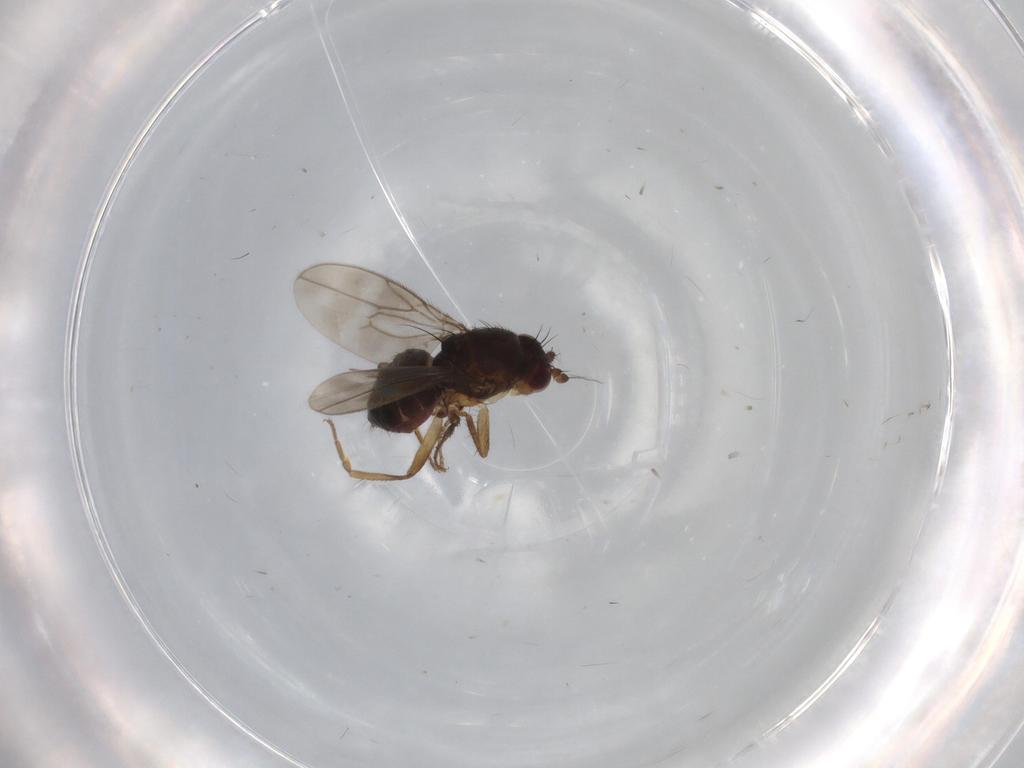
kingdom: Animalia
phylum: Arthropoda
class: Insecta
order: Diptera
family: Sphaeroceridae
